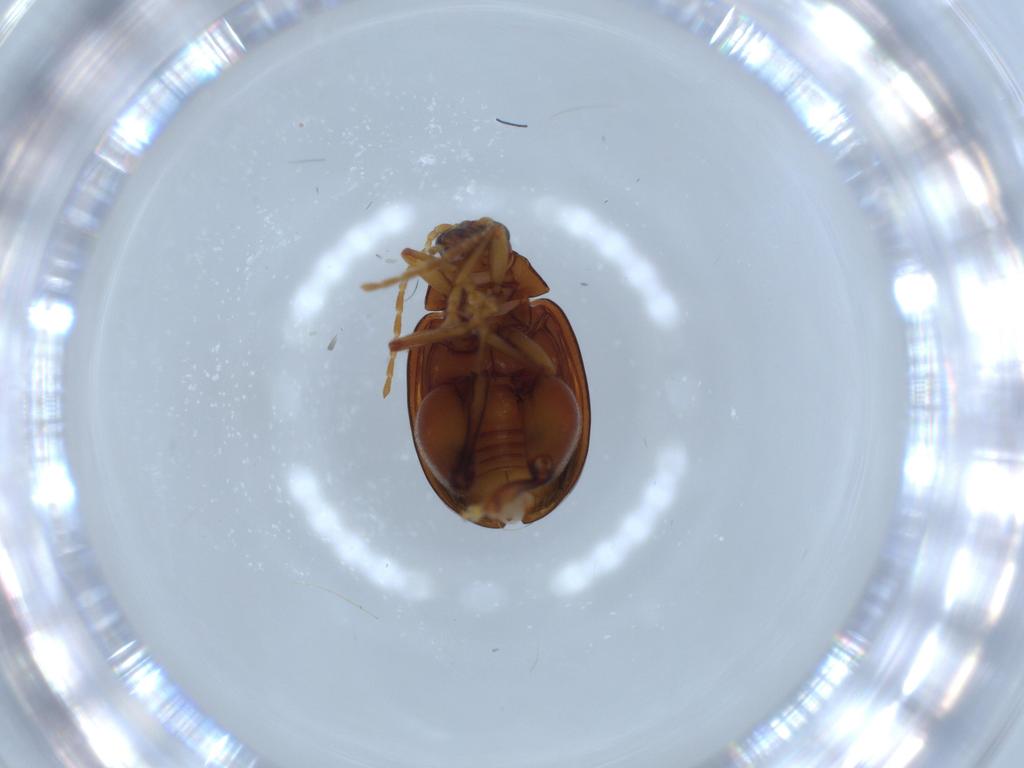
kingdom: Animalia
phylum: Arthropoda
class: Insecta
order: Coleoptera
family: Chrysomelidae
